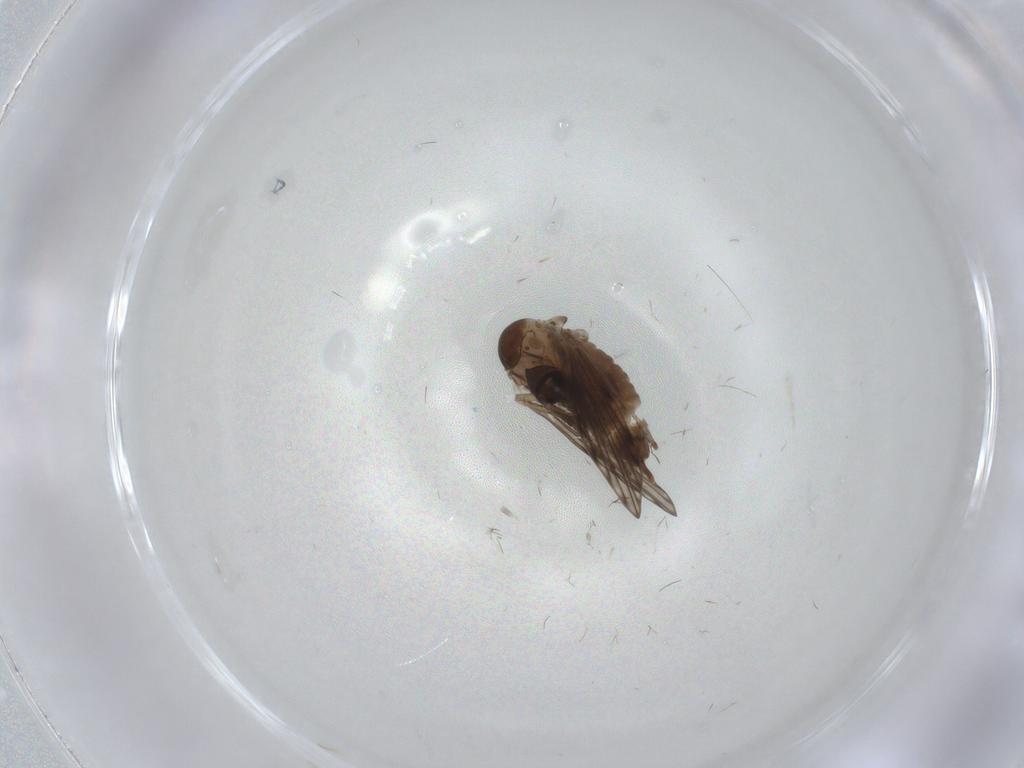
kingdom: Animalia
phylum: Arthropoda
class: Insecta
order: Diptera
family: Psychodidae
